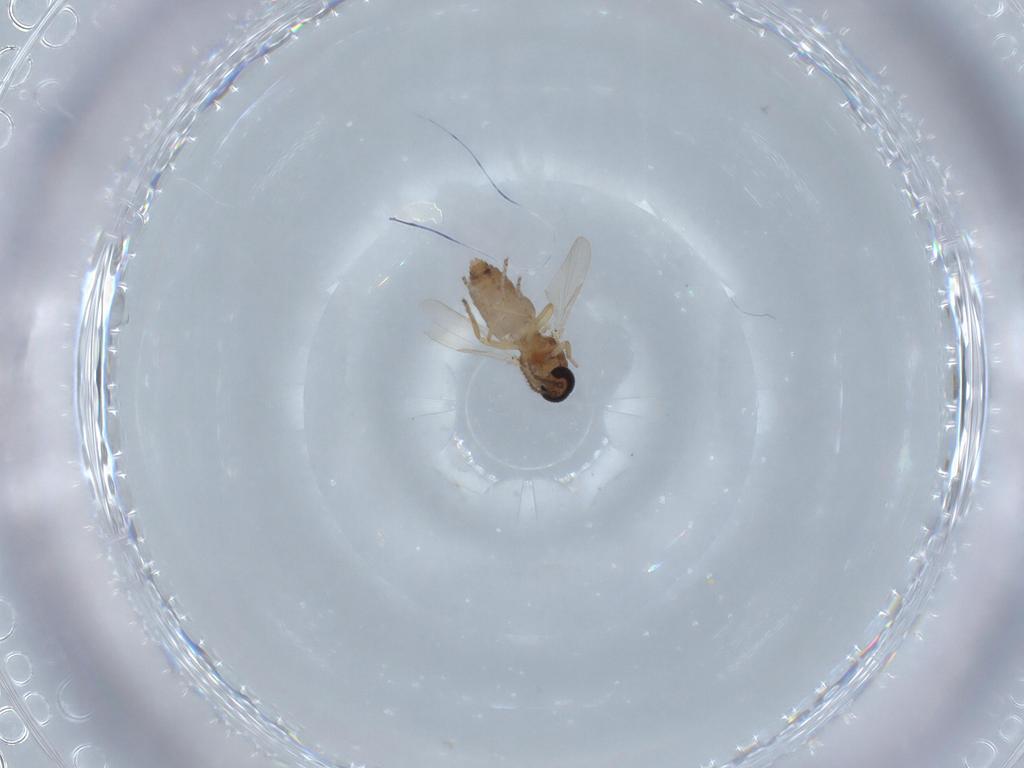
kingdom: Animalia
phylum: Arthropoda
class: Insecta
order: Diptera
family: Ceratopogonidae
